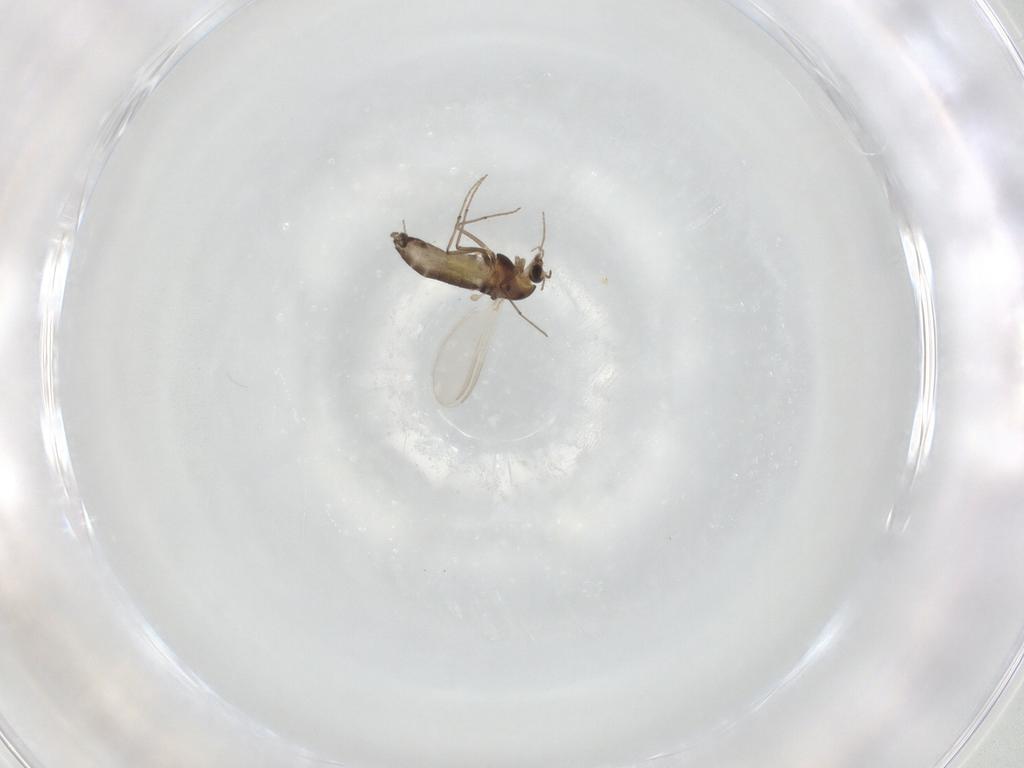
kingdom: Animalia
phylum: Arthropoda
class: Insecta
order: Diptera
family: Chironomidae
